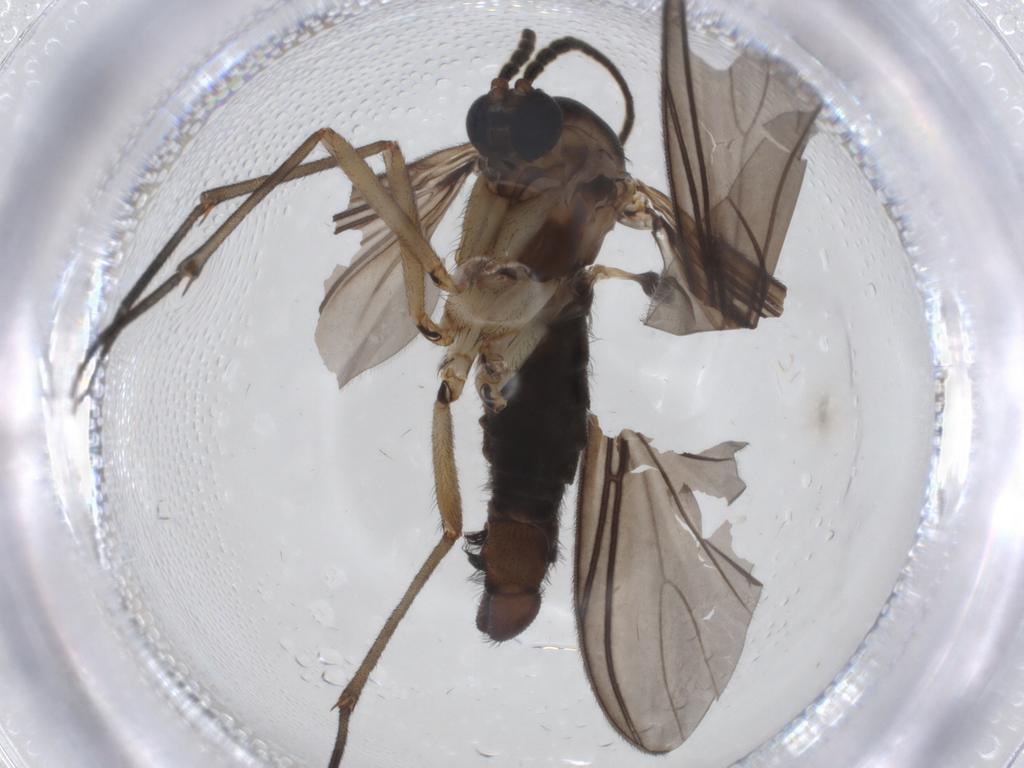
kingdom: Animalia
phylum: Arthropoda
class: Insecta
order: Diptera
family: Sciaridae
